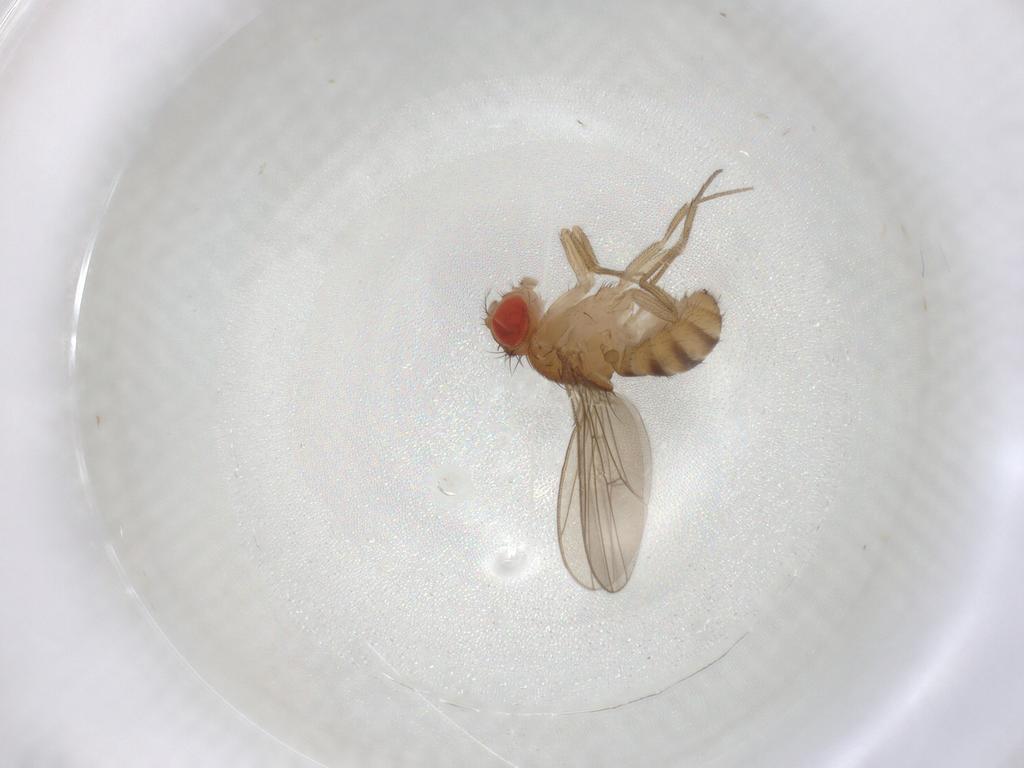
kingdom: Animalia
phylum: Arthropoda
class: Insecta
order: Diptera
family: Drosophilidae
